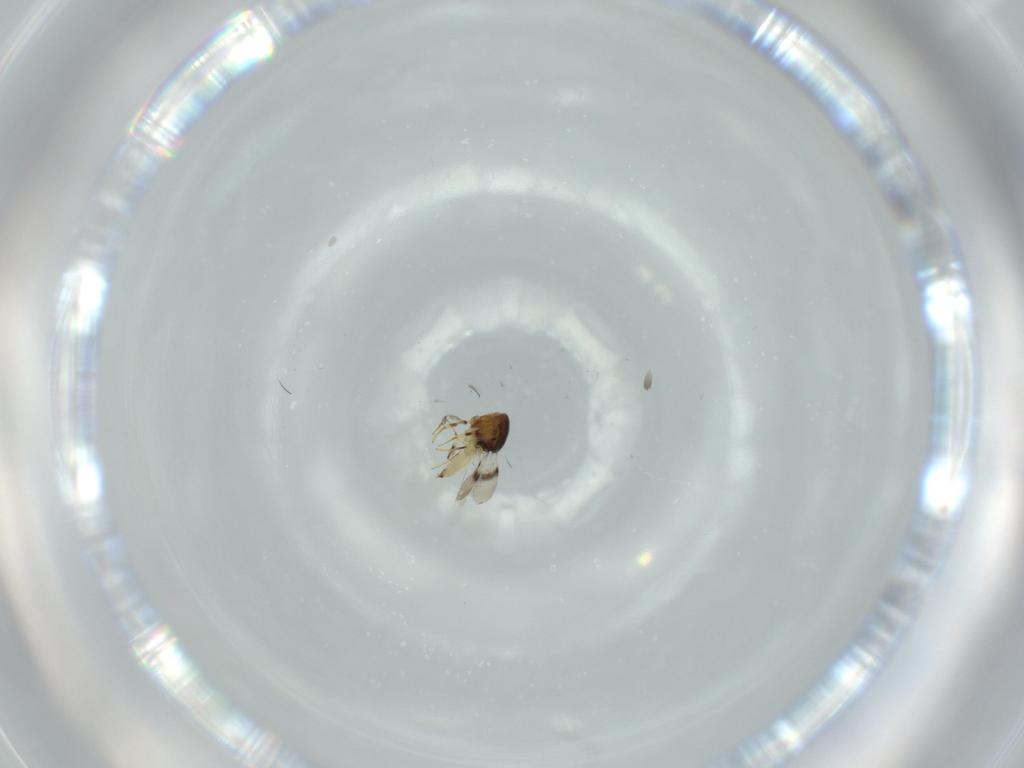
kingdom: Animalia
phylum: Arthropoda
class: Insecta
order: Hymenoptera
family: Scelionidae
